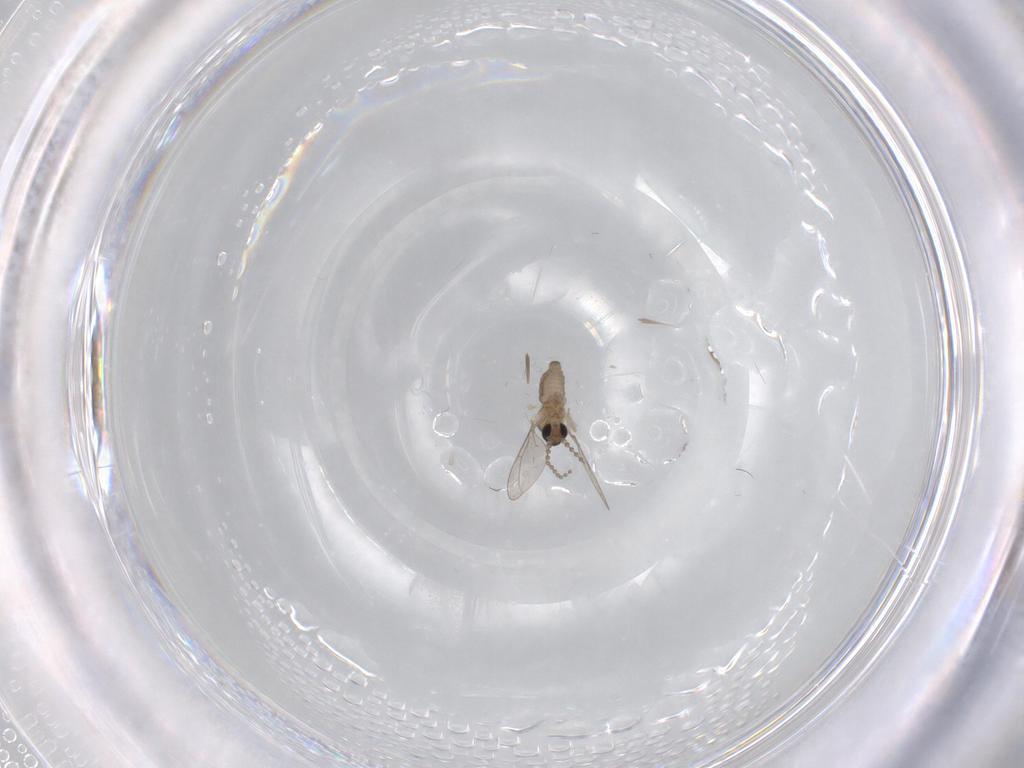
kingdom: Animalia
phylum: Arthropoda
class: Insecta
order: Diptera
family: Cecidomyiidae
